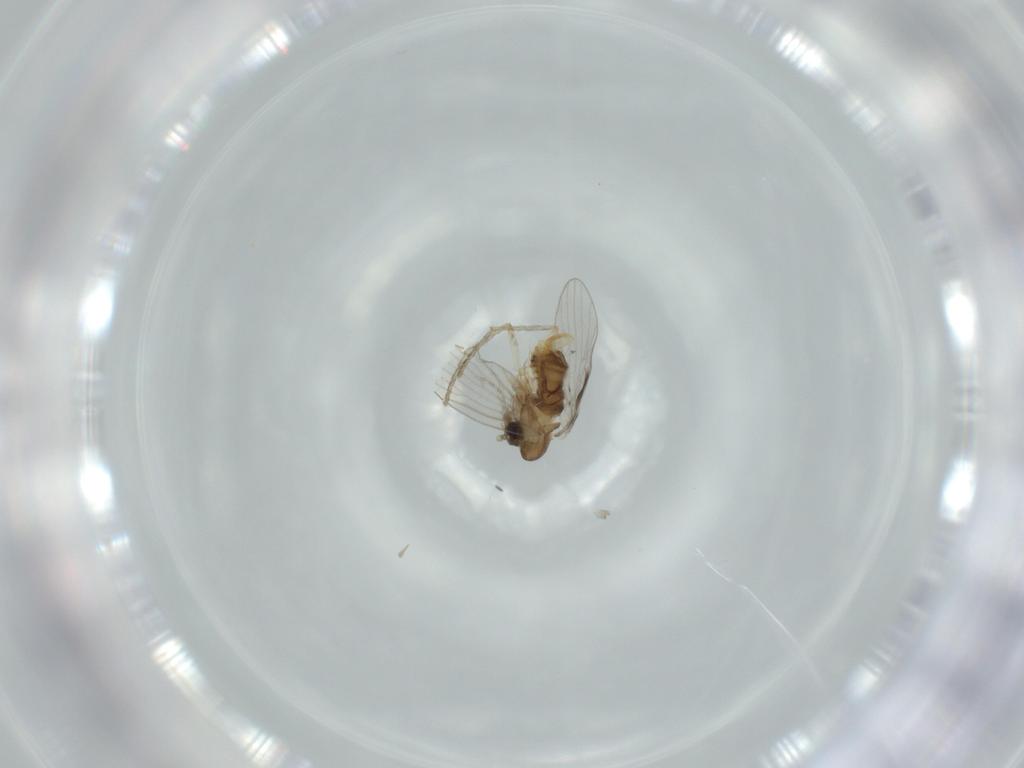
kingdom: Animalia
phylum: Arthropoda
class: Insecta
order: Diptera
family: Psychodidae
